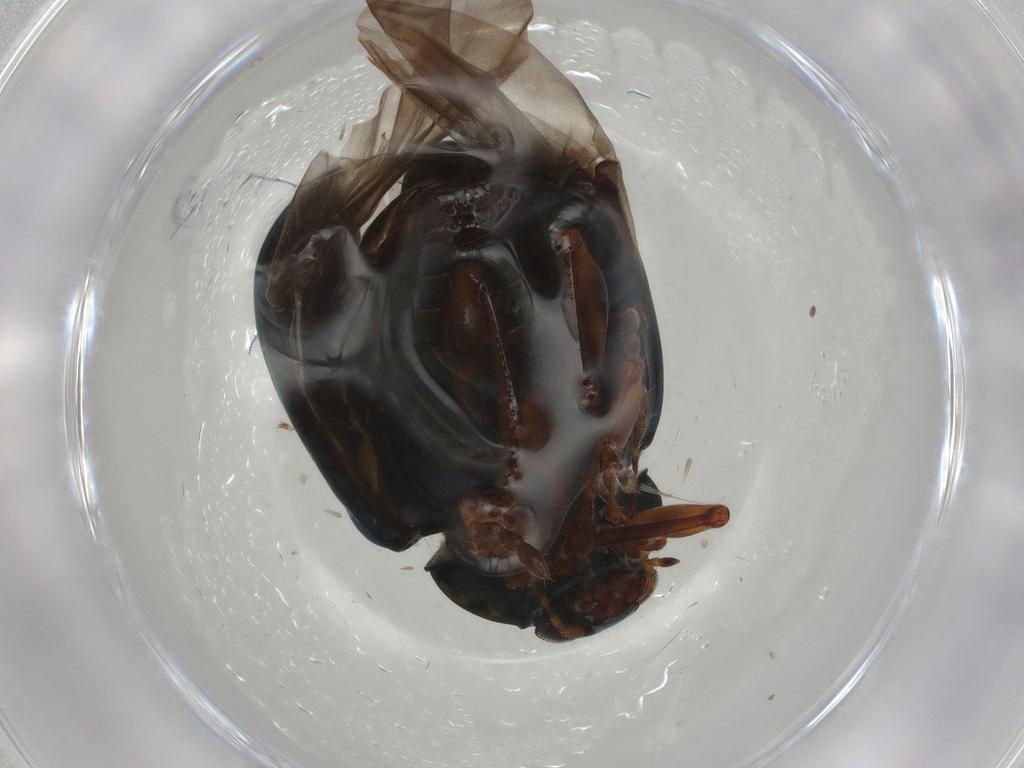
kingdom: Animalia
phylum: Arthropoda
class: Insecta
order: Coleoptera
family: Chrysomelidae
